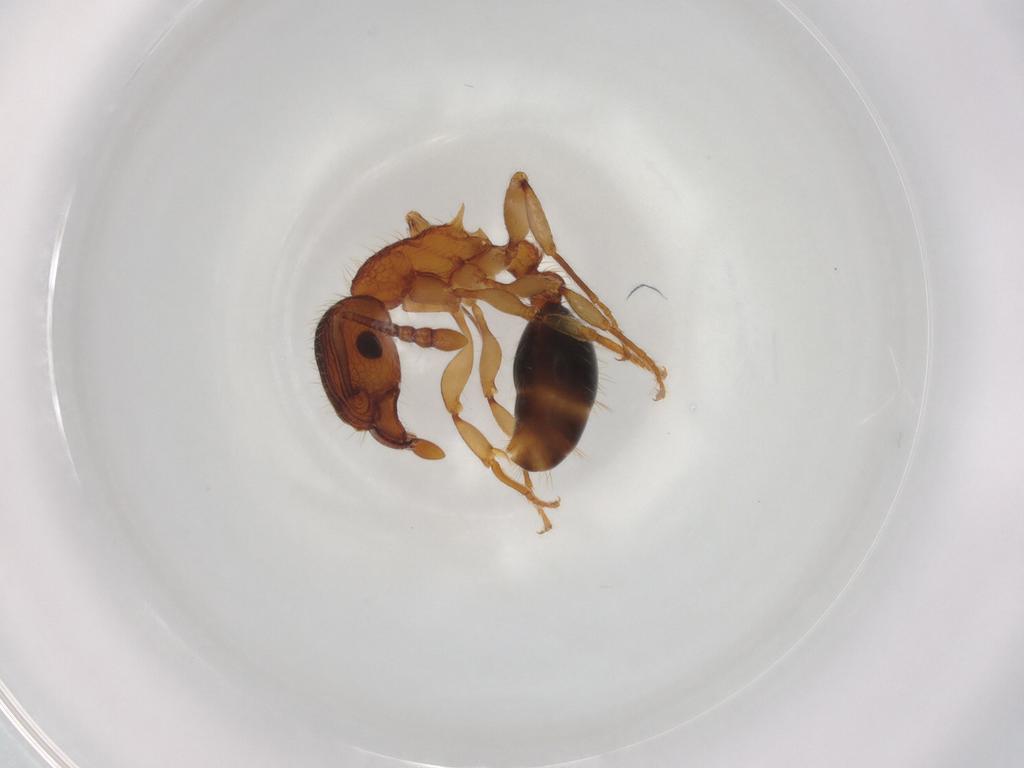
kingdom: Animalia
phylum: Arthropoda
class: Insecta
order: Hymenoptera
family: Formicidae
